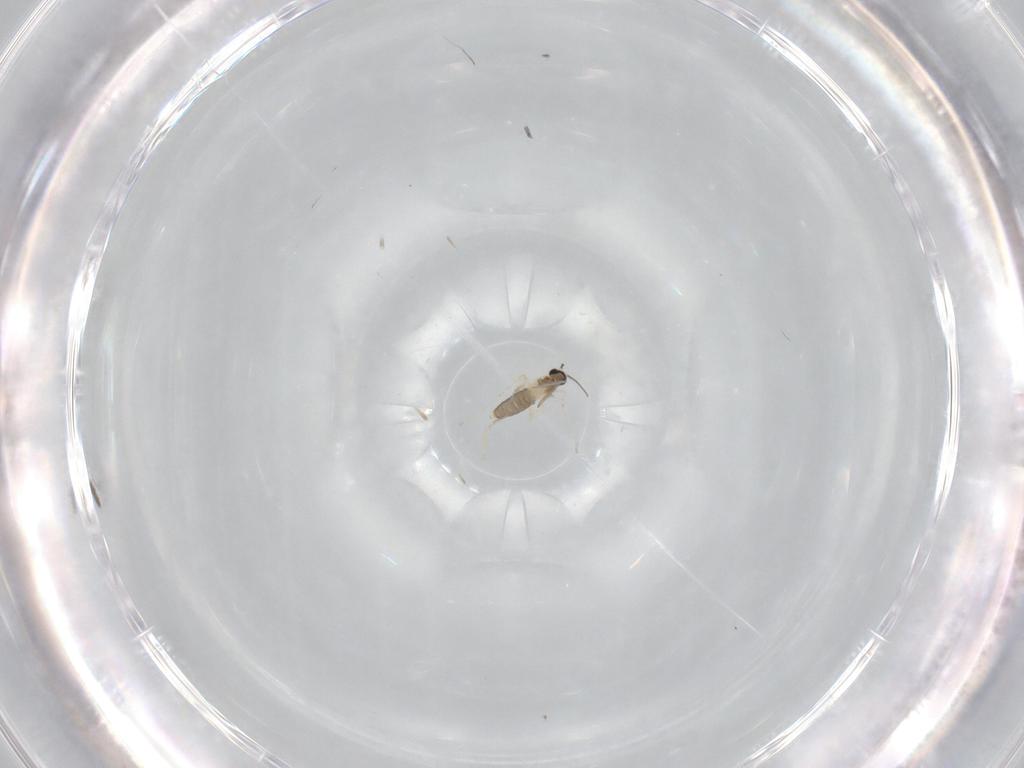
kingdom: Animalia
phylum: Arthropoda
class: Insecta
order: Diptera
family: Cecidomyiidae
